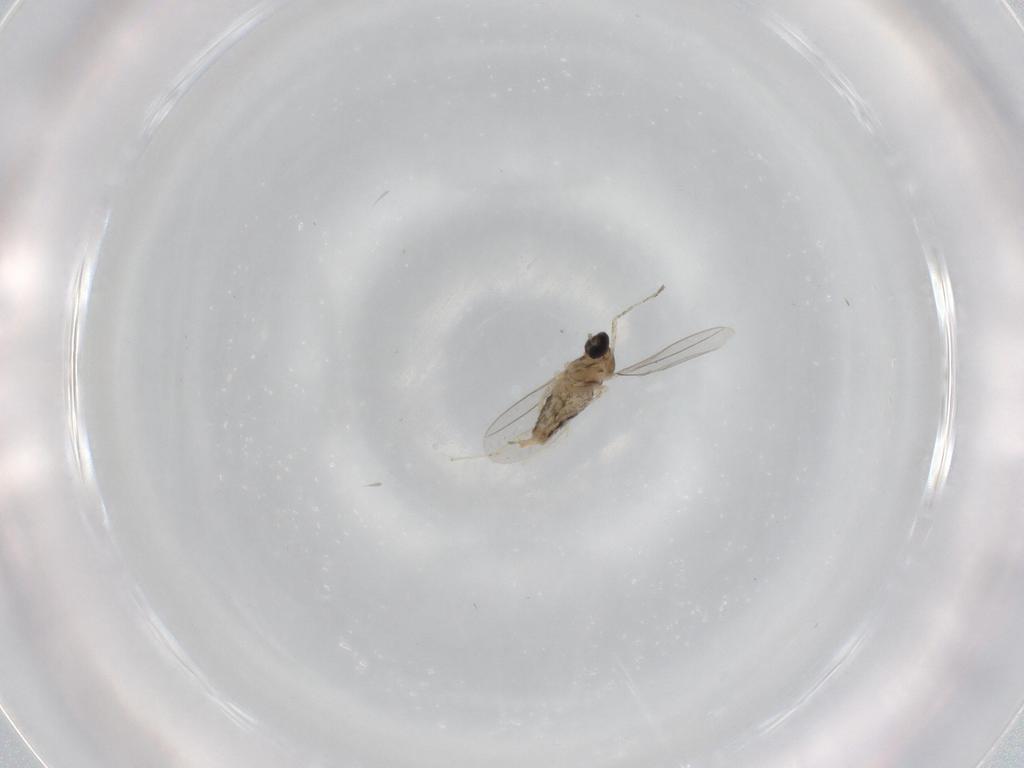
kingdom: Animalia
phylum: Arthropoda
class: Insecta
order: Diptera
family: Cecidomyiidae
